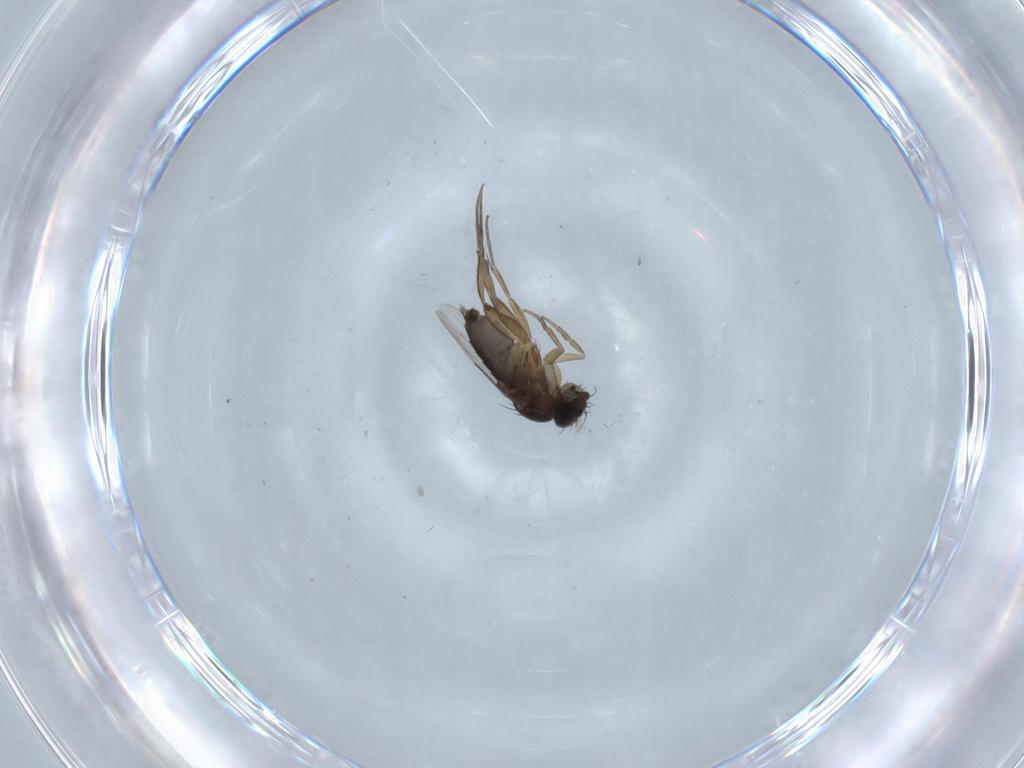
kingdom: Animalia
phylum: Arthropoda
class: Insecta
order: Diptera
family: Phoridae
